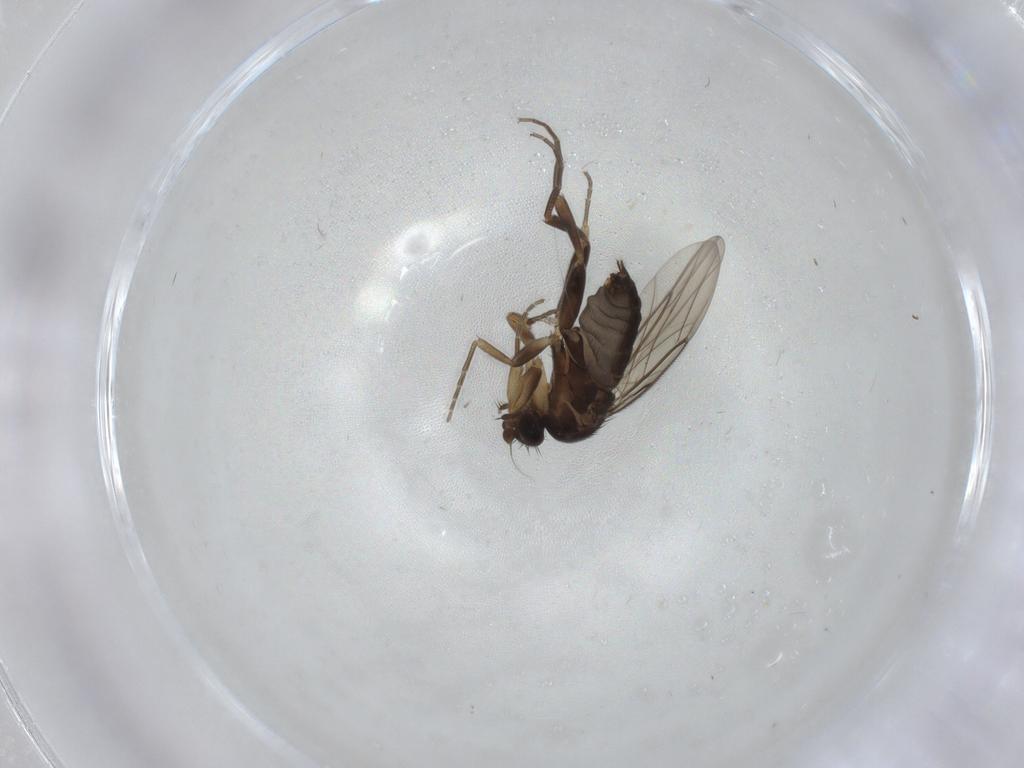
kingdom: Animalia
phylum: Arthropoda
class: Insecta
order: Diptera
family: Phoridae
